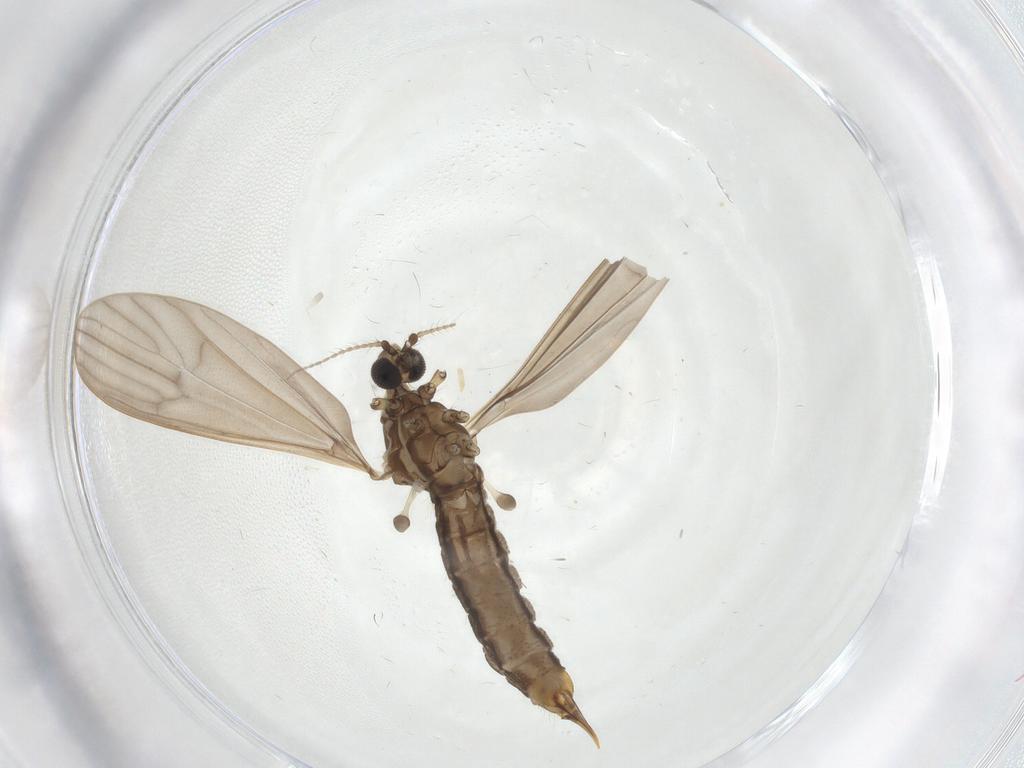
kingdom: Animalia
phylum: Arthropoda
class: Insecta
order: Diptera
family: Limoniidae
